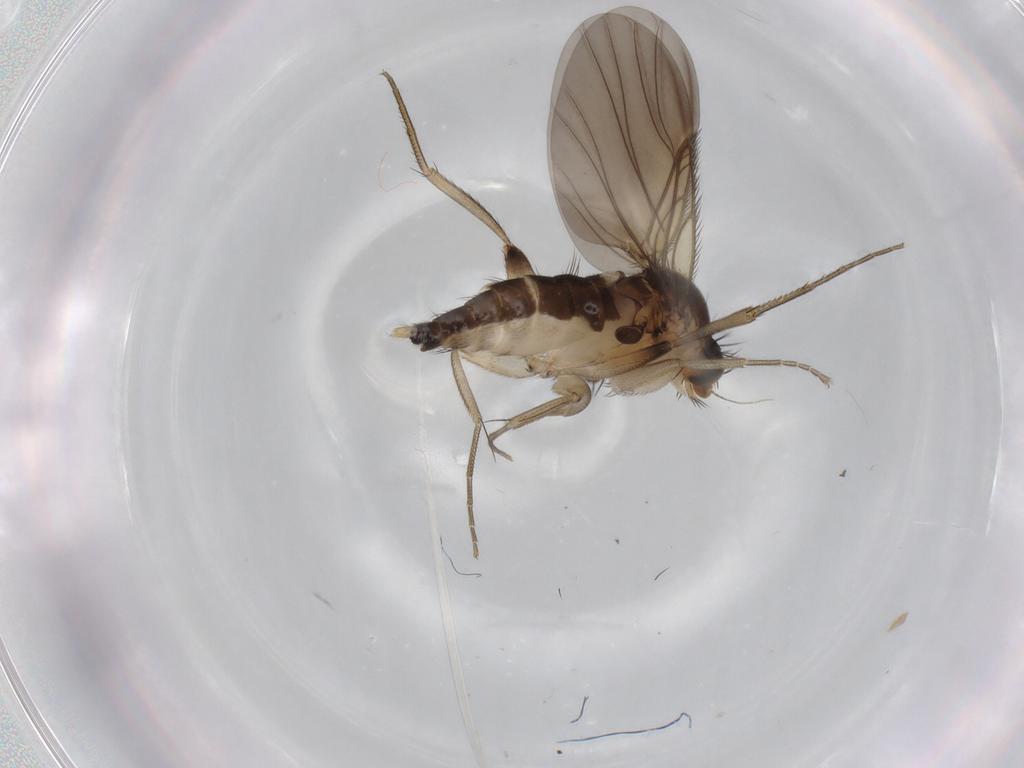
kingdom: Animalia
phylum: Arthropoda
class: Insecta
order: Diptera
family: Phoridae
